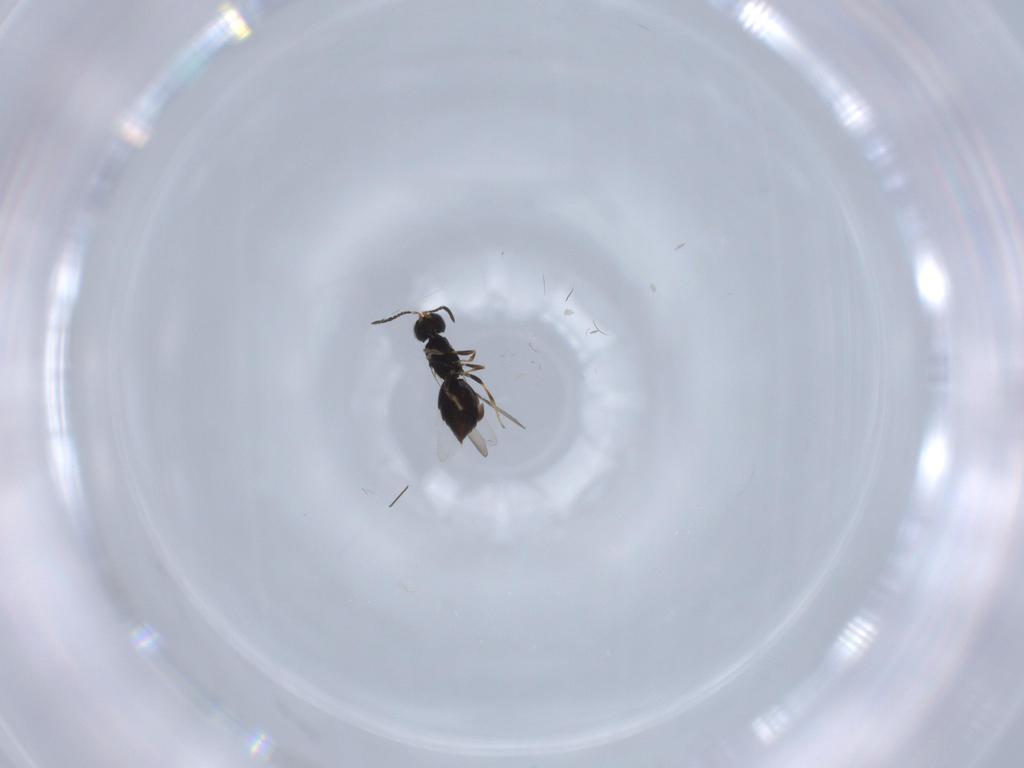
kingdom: Animalia
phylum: Arthropoda
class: Insecta
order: Hymenoptera
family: Ceraphronidae
